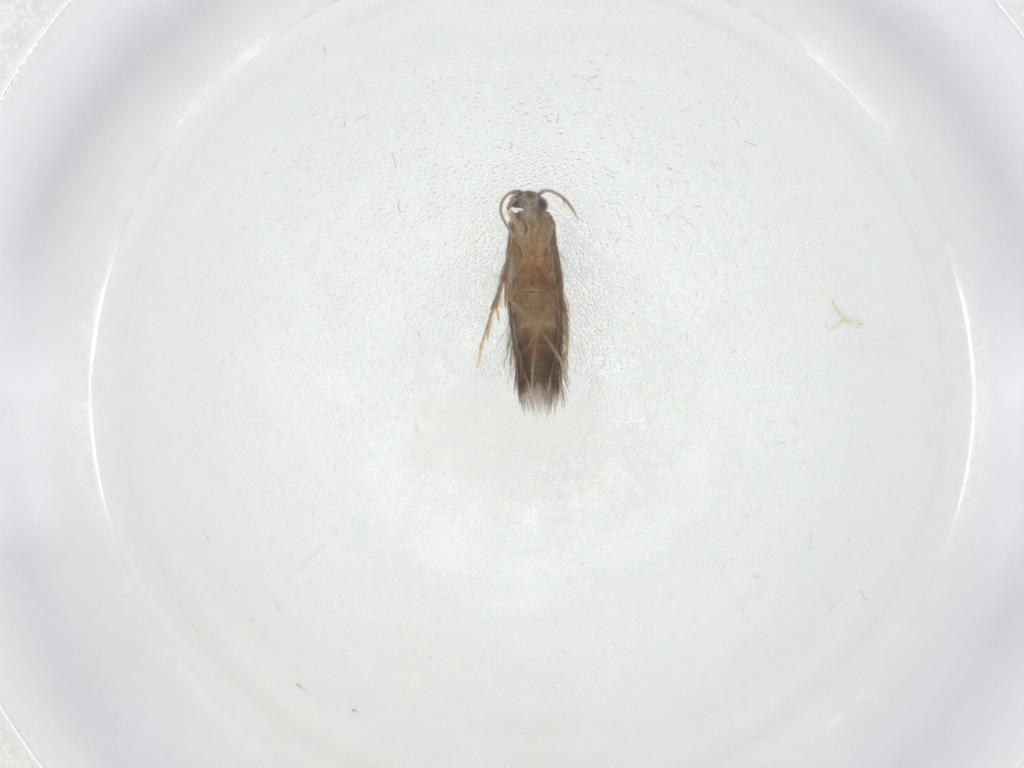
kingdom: Animalia
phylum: Arthropoda
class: Insecta
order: Trichoptera
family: Hydroptilidae
